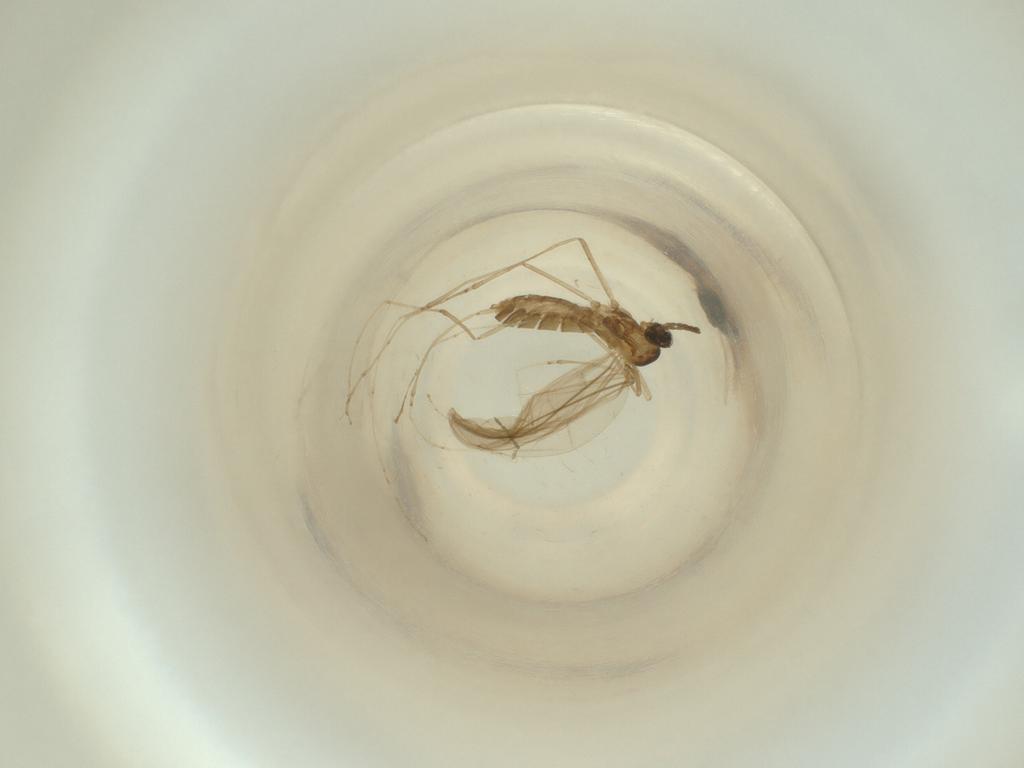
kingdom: Animalia
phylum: Arthropoda
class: Insecta
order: Diptera
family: Cecidomyiidae
